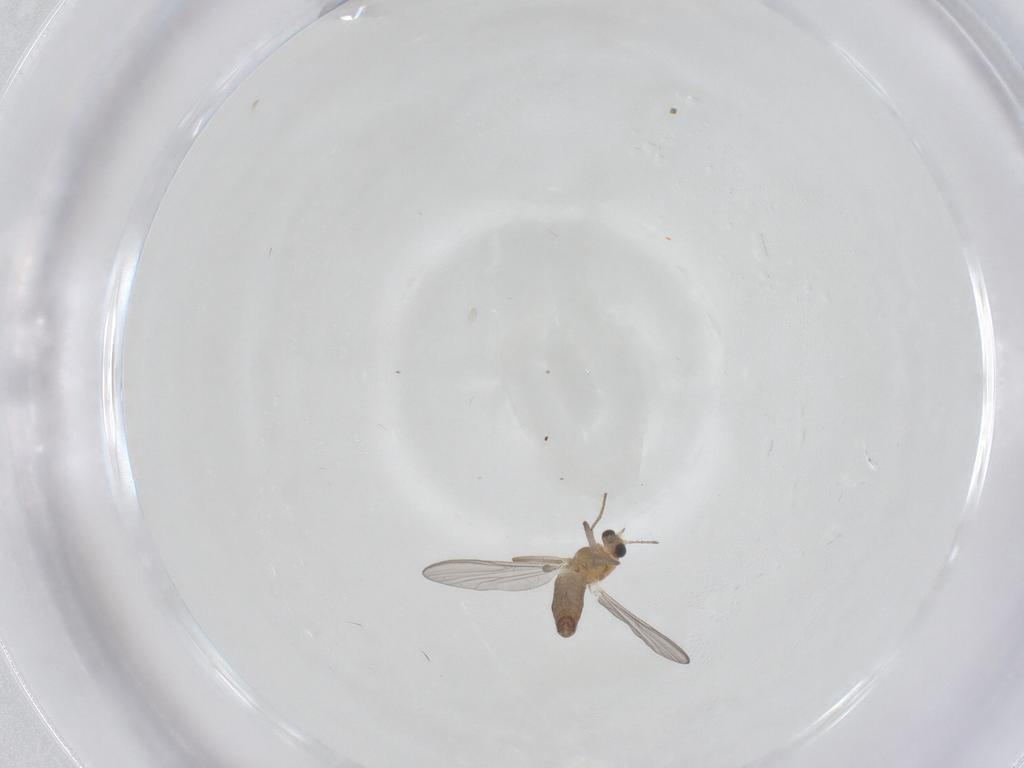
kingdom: Animalia
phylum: Arthropoda
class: Insecta
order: Diptera
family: Chironomidae
